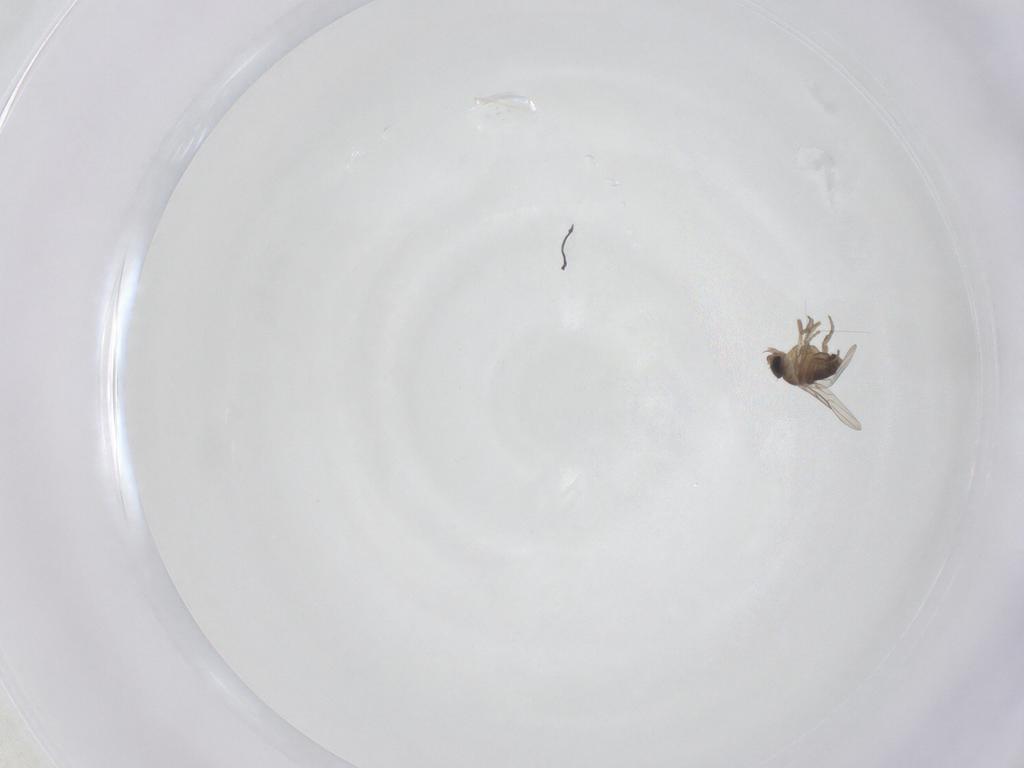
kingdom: Animalia
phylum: Arthropoda
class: Insecta
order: Diptera
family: Phoridae
